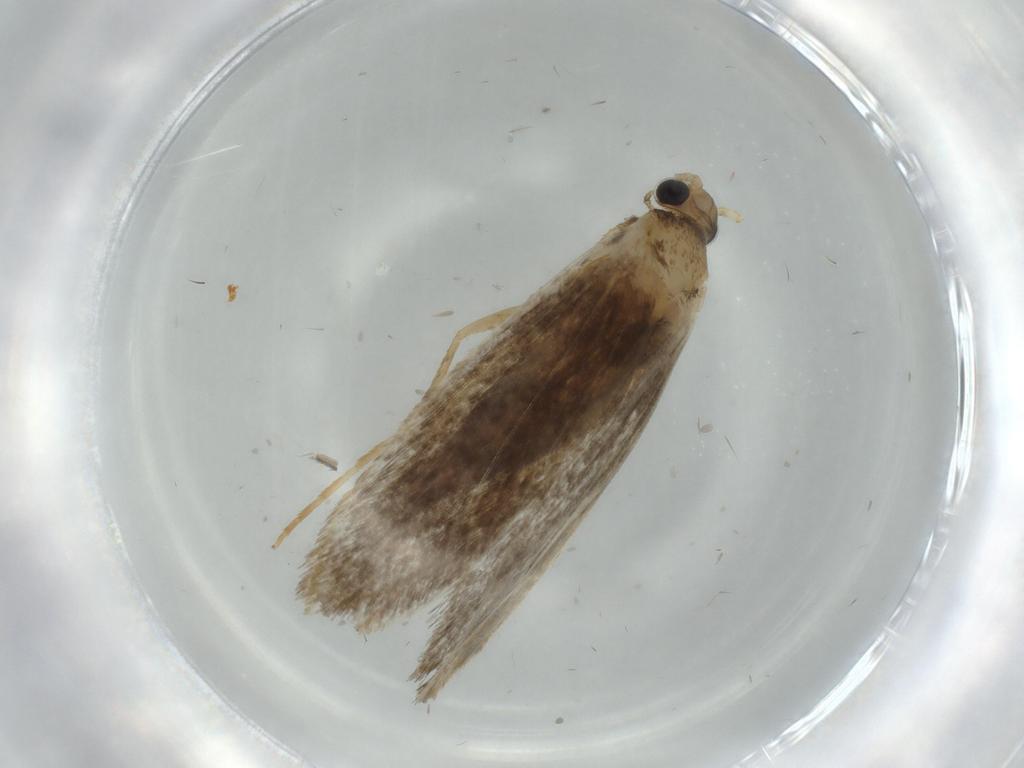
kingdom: Animalia
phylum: Arthropoda
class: Insecta
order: Lepidoptera
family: Tineidae
